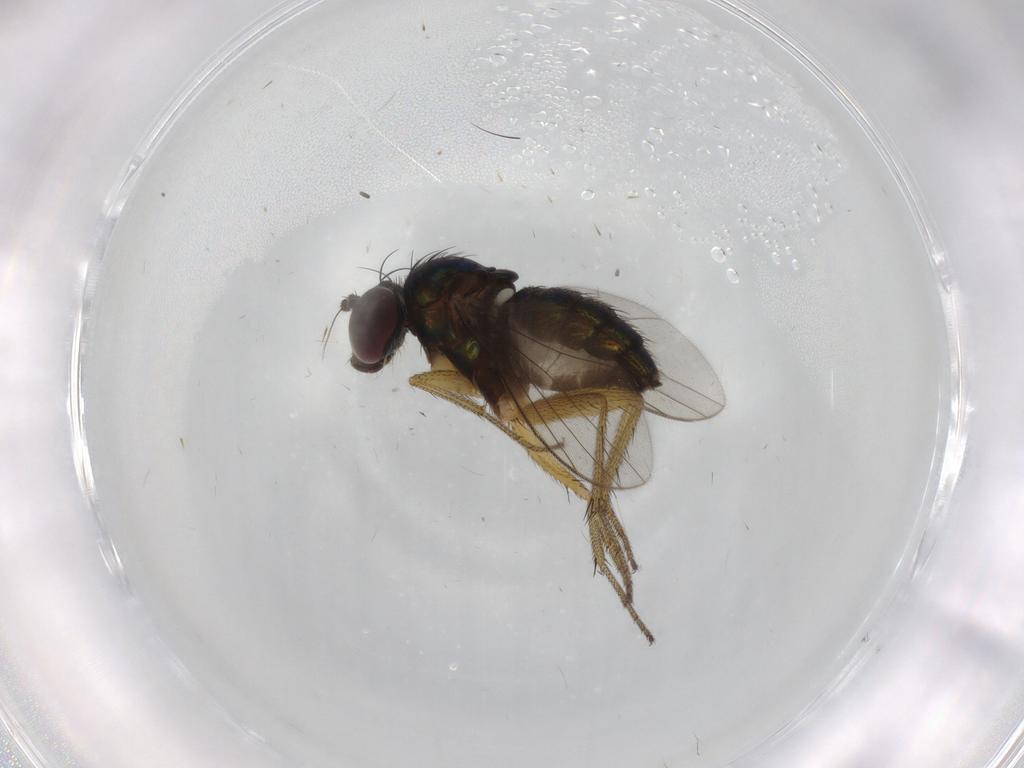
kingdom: Animalia
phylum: Arthropoda
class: Insecta
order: Diptera
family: Dolichopodidae
